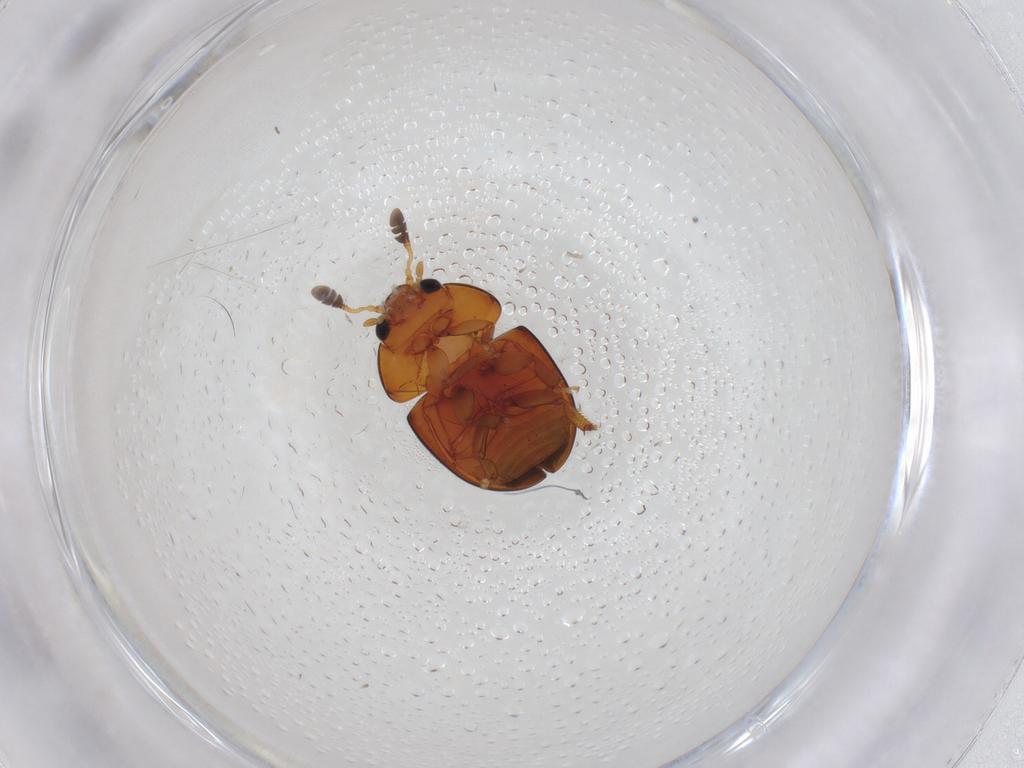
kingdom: Animalia
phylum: Arthropoda
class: Insecta
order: Coleoptera
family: Phalacridae
